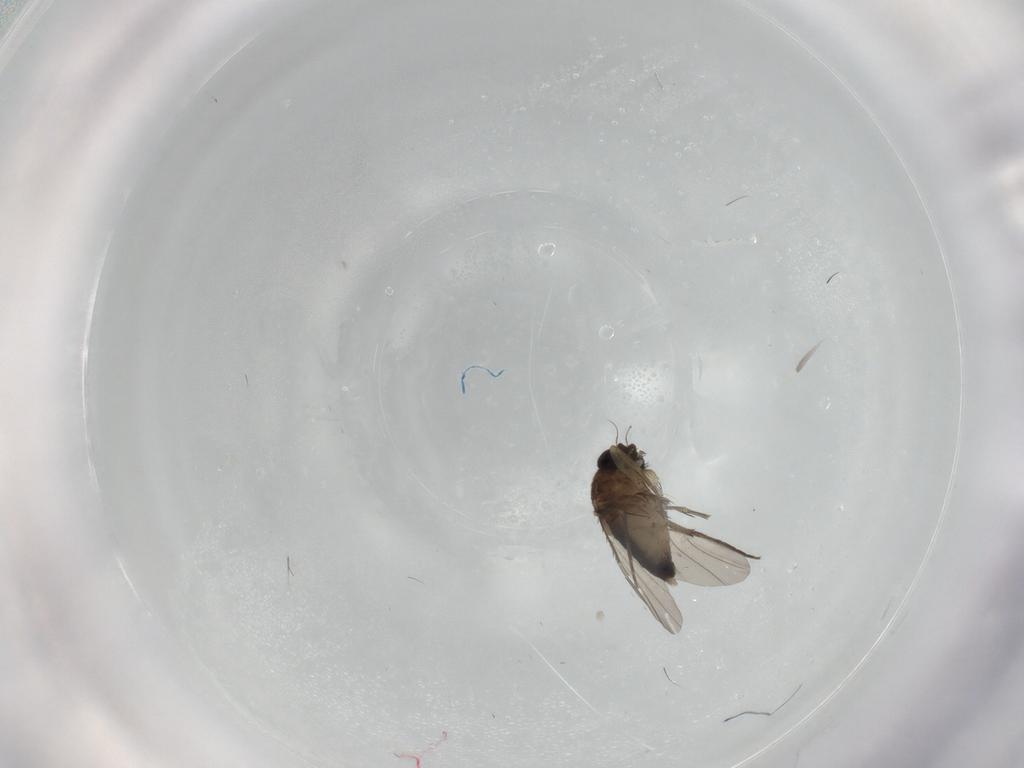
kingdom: Animalia
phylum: Arthropoda
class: Insecta
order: Diptera
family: Phoridae
